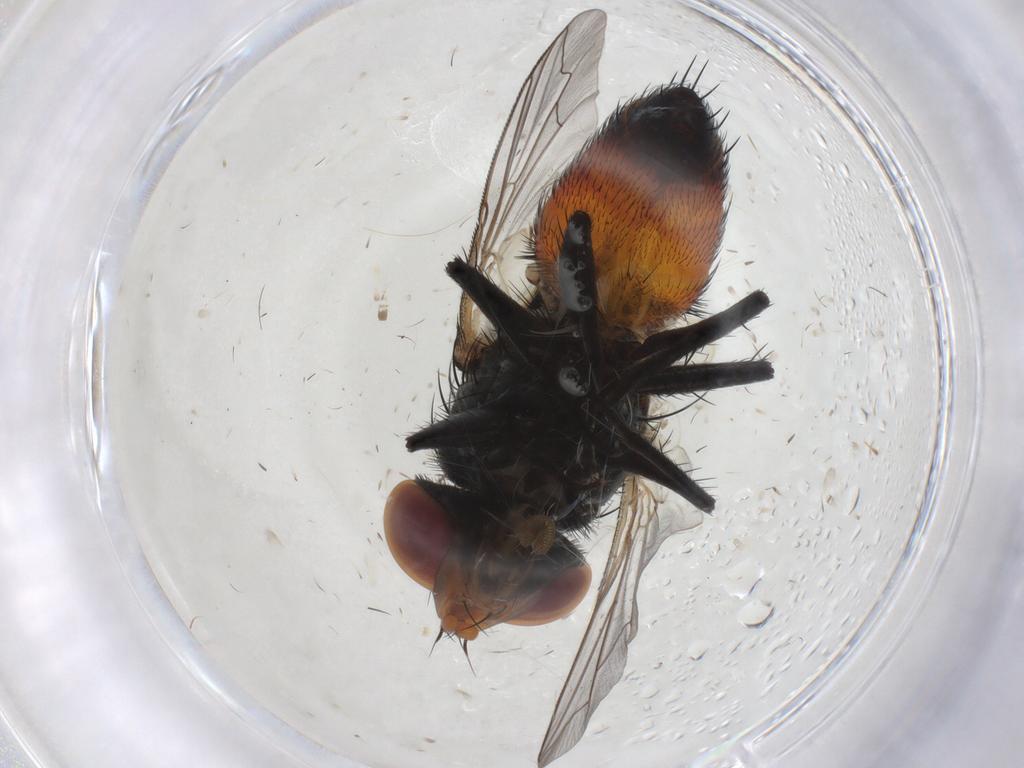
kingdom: Animalia
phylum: Arthropoda
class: Insecta
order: Diptera
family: Sarcophagidae
